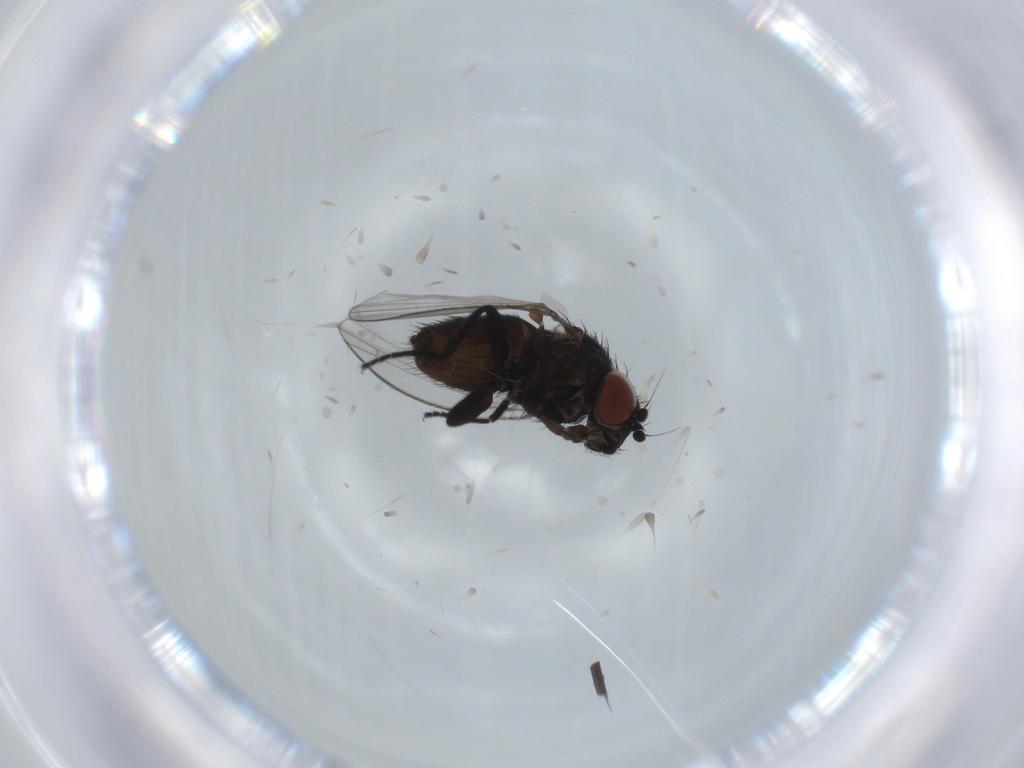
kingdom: Animalia
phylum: Arthropoda
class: Insecta
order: Diptera
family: Milichiidae
